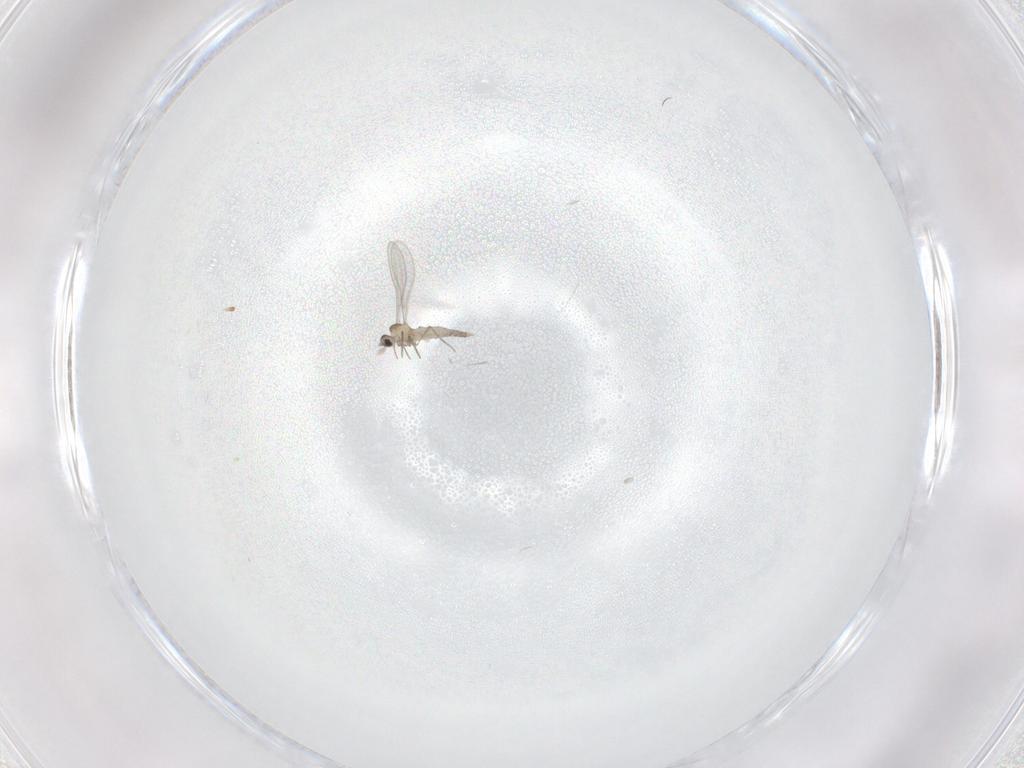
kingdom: Animalia
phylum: Arthropoda
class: Insecta
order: Diptera
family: Cecidomyiidae
